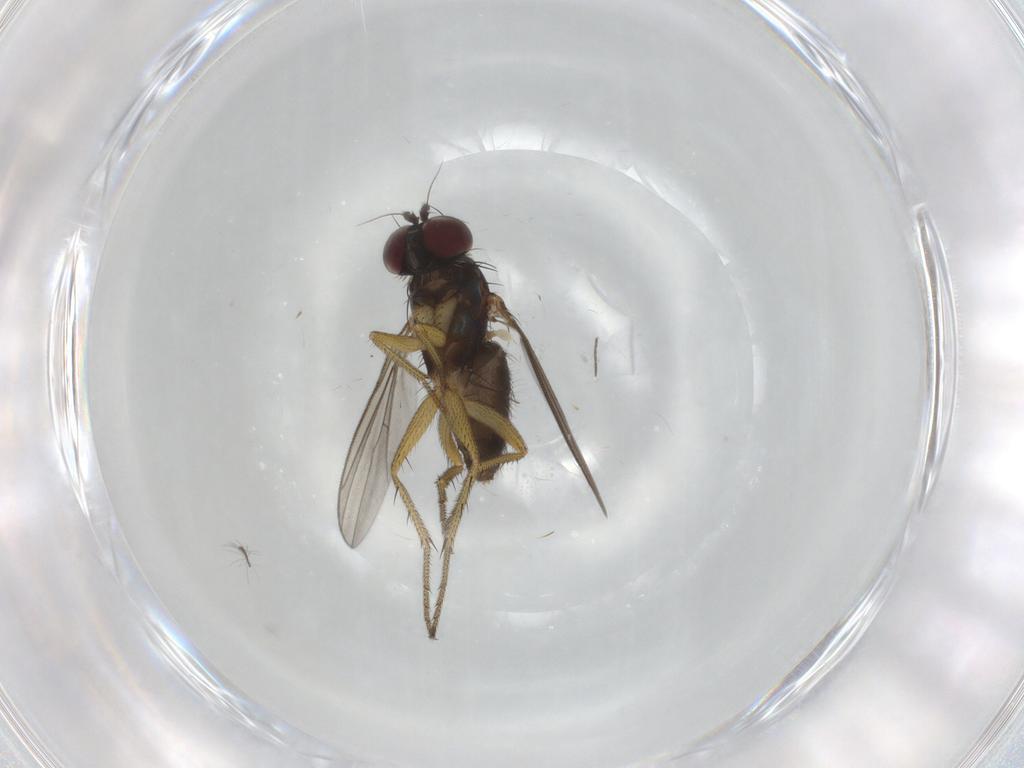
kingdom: Animalia
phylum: Arthropoda
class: Insecta
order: Diptera
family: Dolichopodidae
